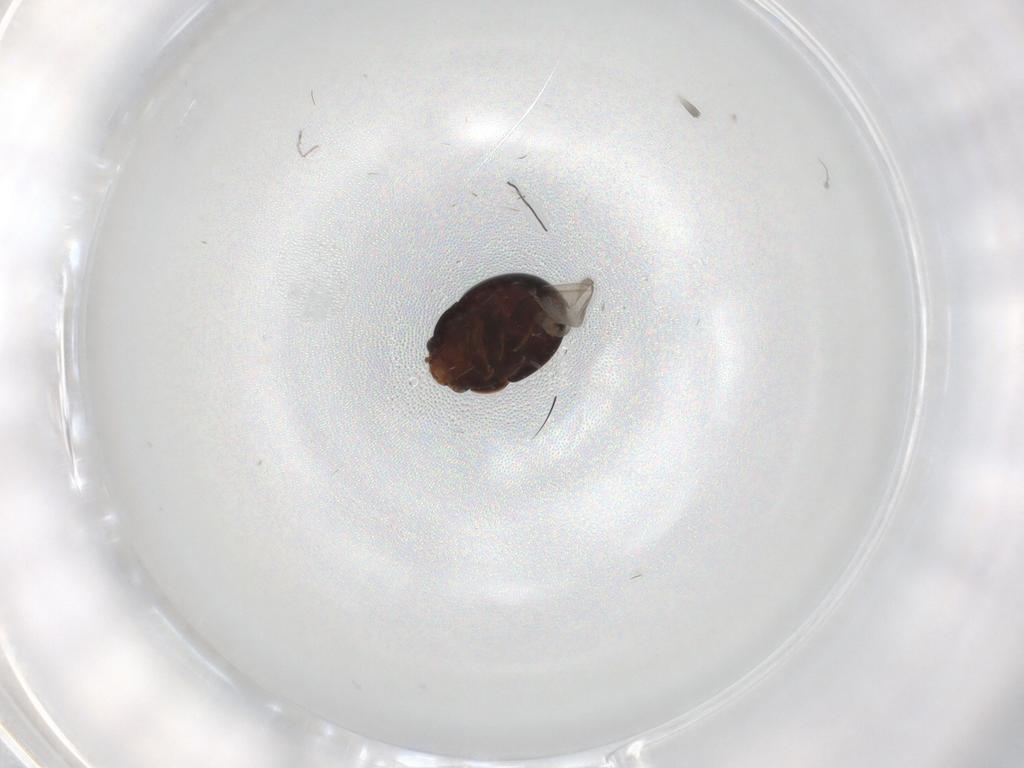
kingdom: Animalia
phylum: Arthropoda
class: Insecta
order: Coleoptera
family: Leiodidae
